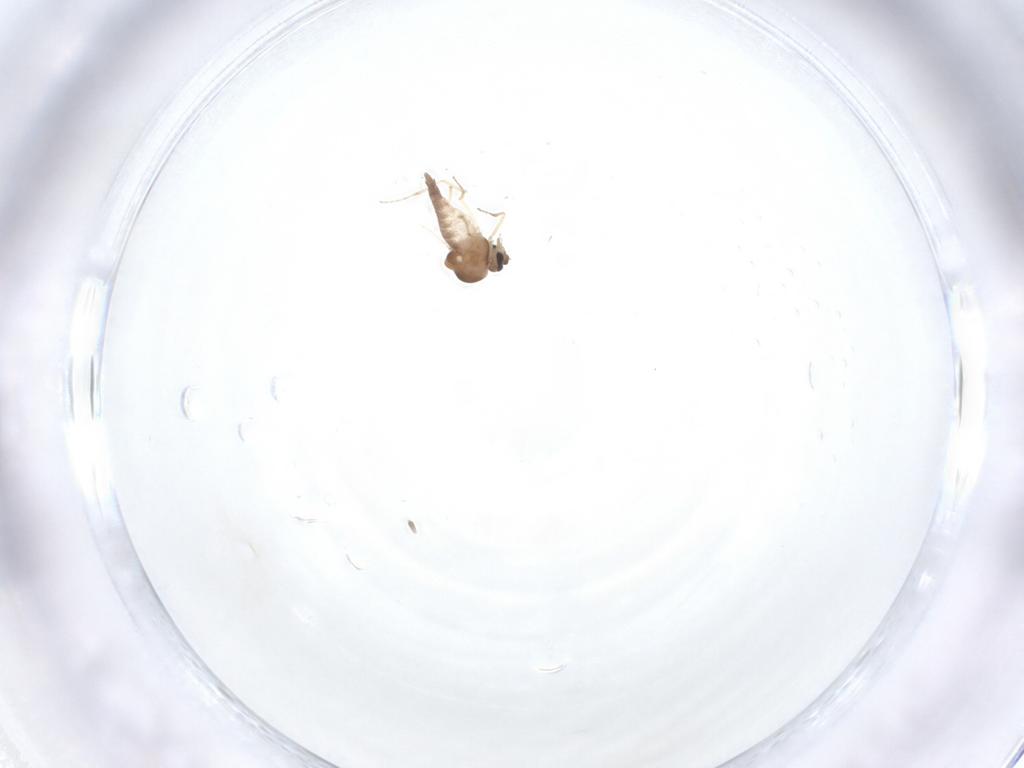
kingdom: Animalia
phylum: Arthropoda
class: Insecta
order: Diptera
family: Ceratopogonidae
